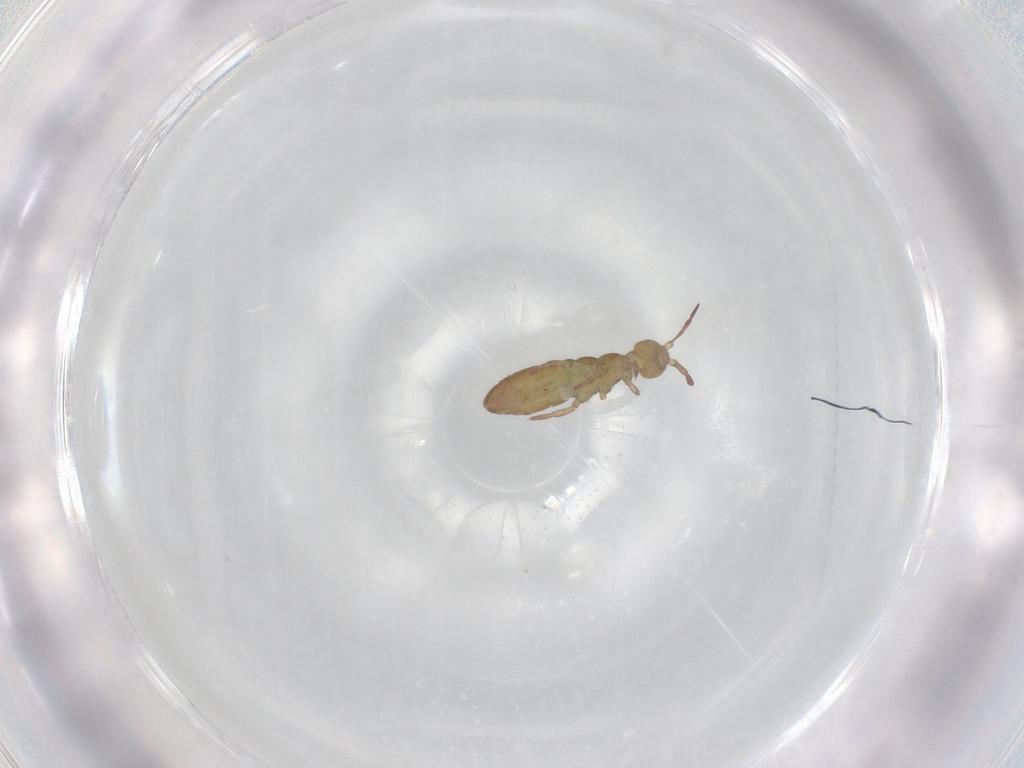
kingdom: Animalia
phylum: Arthropoda
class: Collembola
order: Entomobryomorpha
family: Isotomidae
